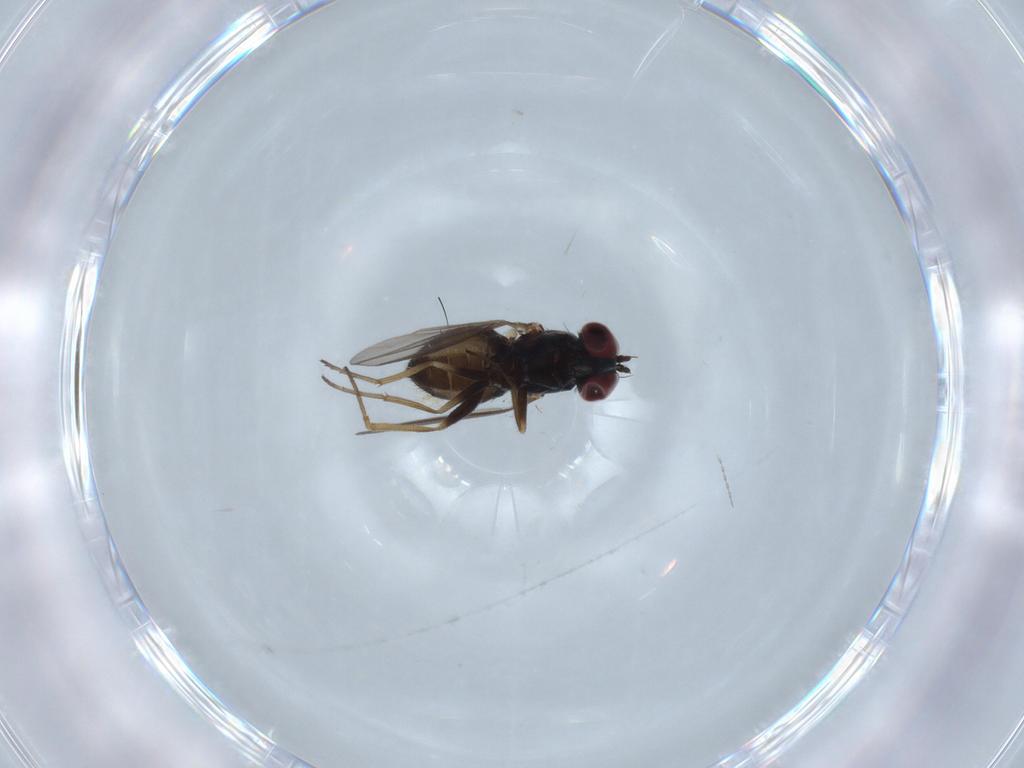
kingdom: Animalia
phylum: Arthropoda
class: Insecta
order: Diptera
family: Dolichopodidae
